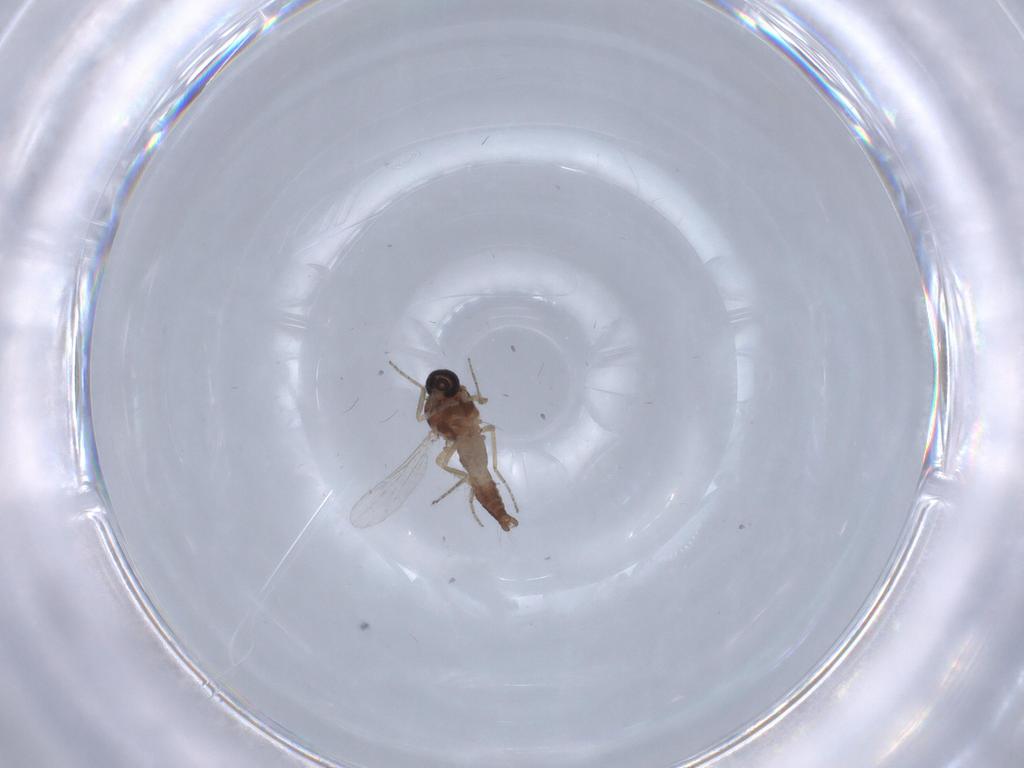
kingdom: Animalia
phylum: Arthropoda
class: Insecta
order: Diptera
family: Ceratopogonidae
